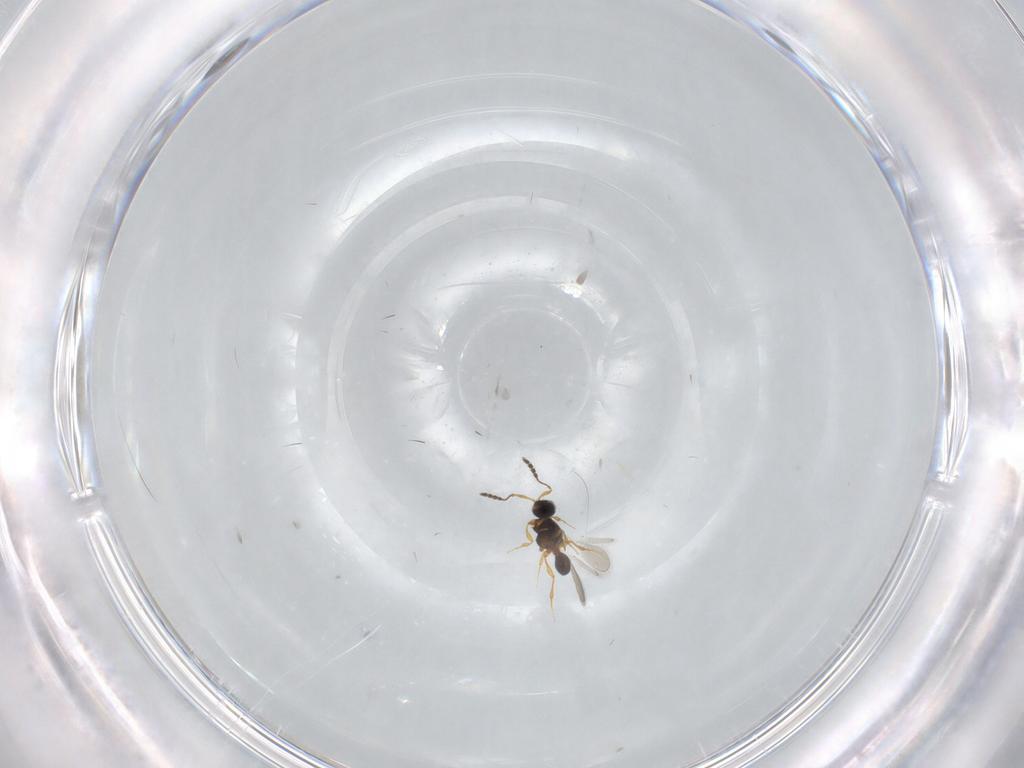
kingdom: Animalia
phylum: Arthropoda
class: Insecta
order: Hymenoptera
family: Platygastridae
